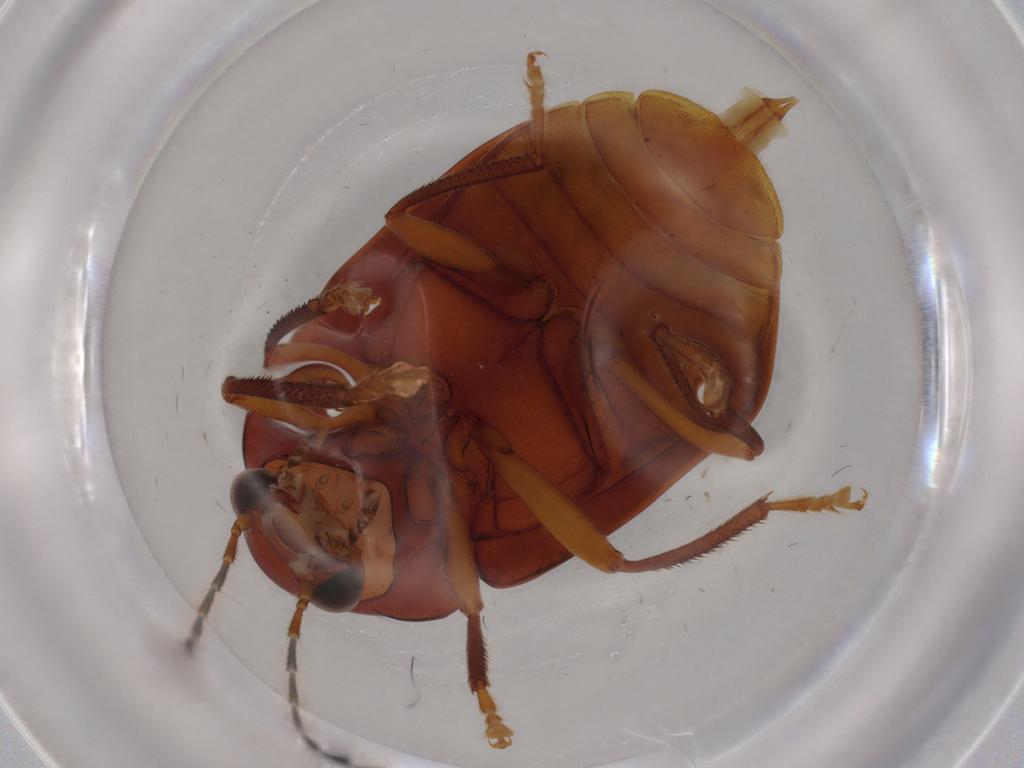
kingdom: Animalia
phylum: Arthropoda
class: Insecta
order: Coleoptera
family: Ptilodactylidae
